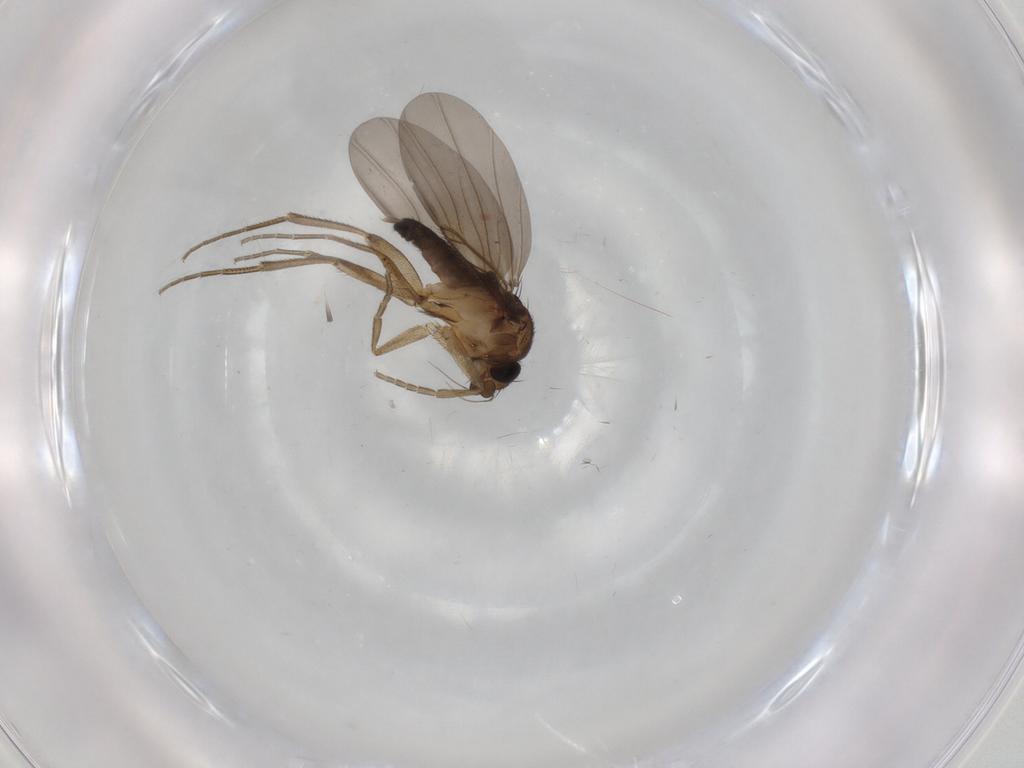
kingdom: Animalia
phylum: Arthropoda
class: Insecta
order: Diptera
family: Phoridae
